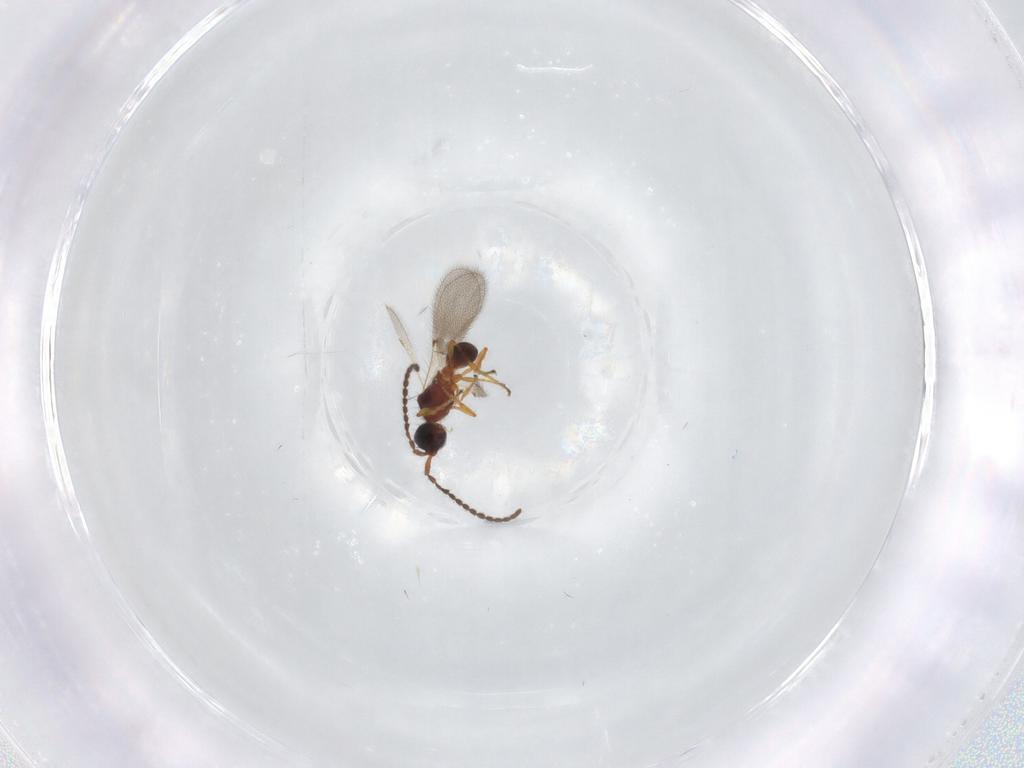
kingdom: Animalia
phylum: Arthropoda
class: Insecta
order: Hymenoptera
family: Diapriidae
